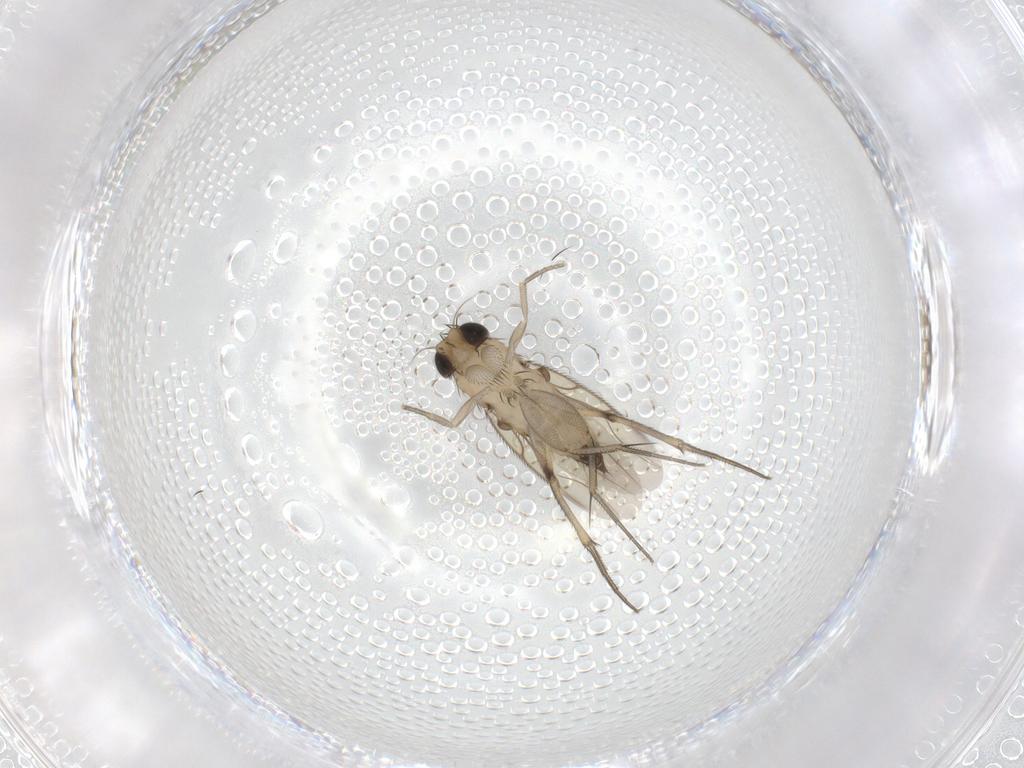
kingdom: Animalia
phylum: Arthropoda
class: Insecta
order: Diptera
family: Phoridae
